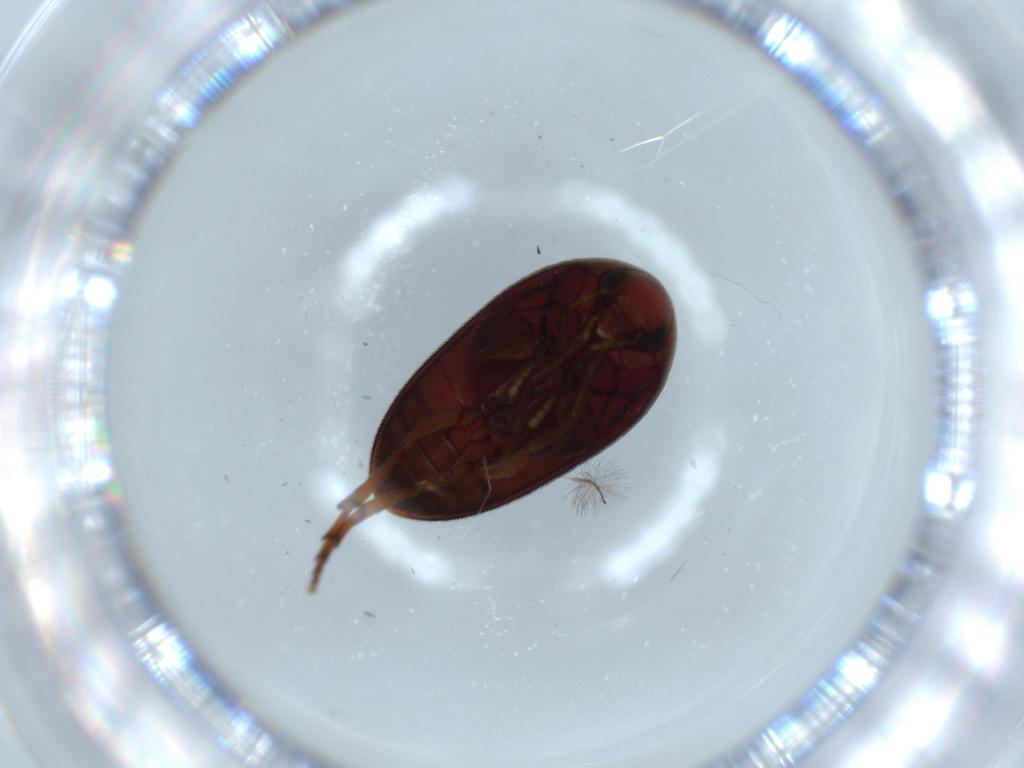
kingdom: Animalia
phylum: Arthropoda
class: Insecta
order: Coleoptera
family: Eucinetidae
